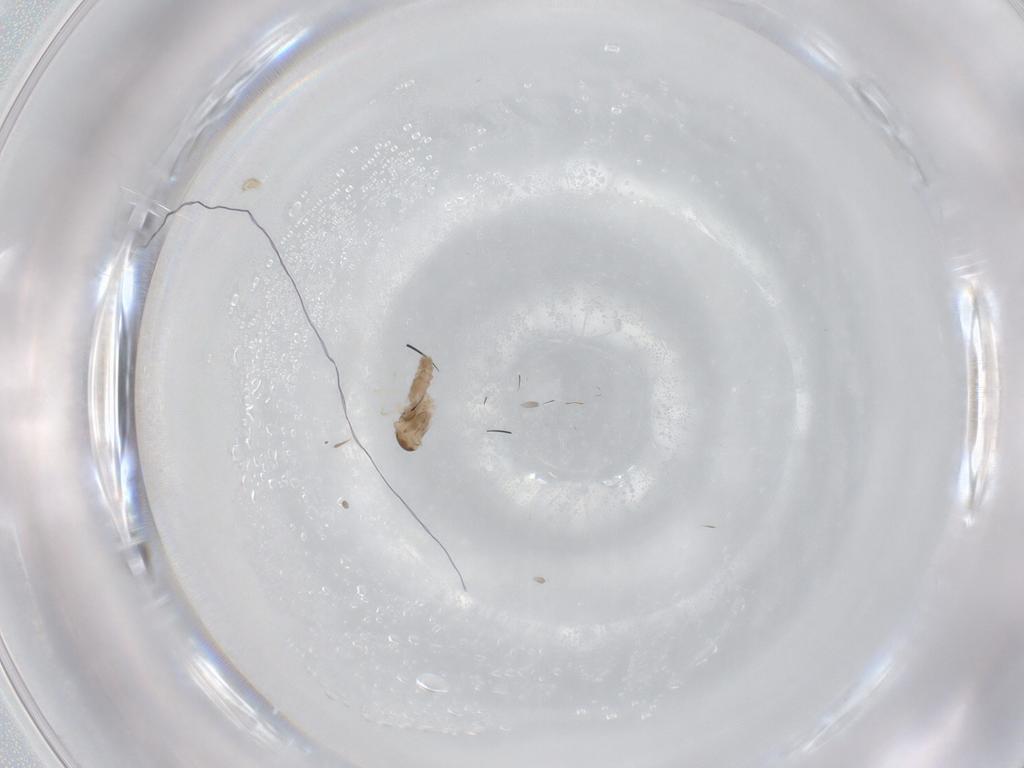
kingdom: Animalia
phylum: Arthropoda
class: Insecta
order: Diptera
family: Cecidomyiidae
